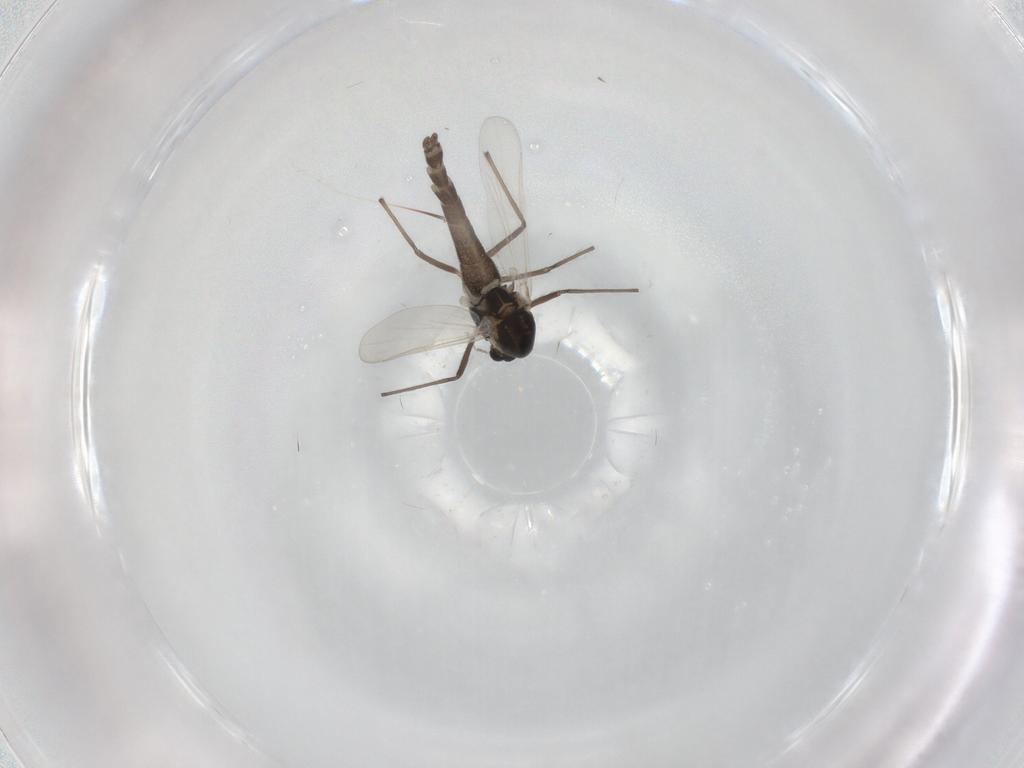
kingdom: Animalia
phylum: Arthropoda
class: Insecta
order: Diptera
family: Chironomidae
